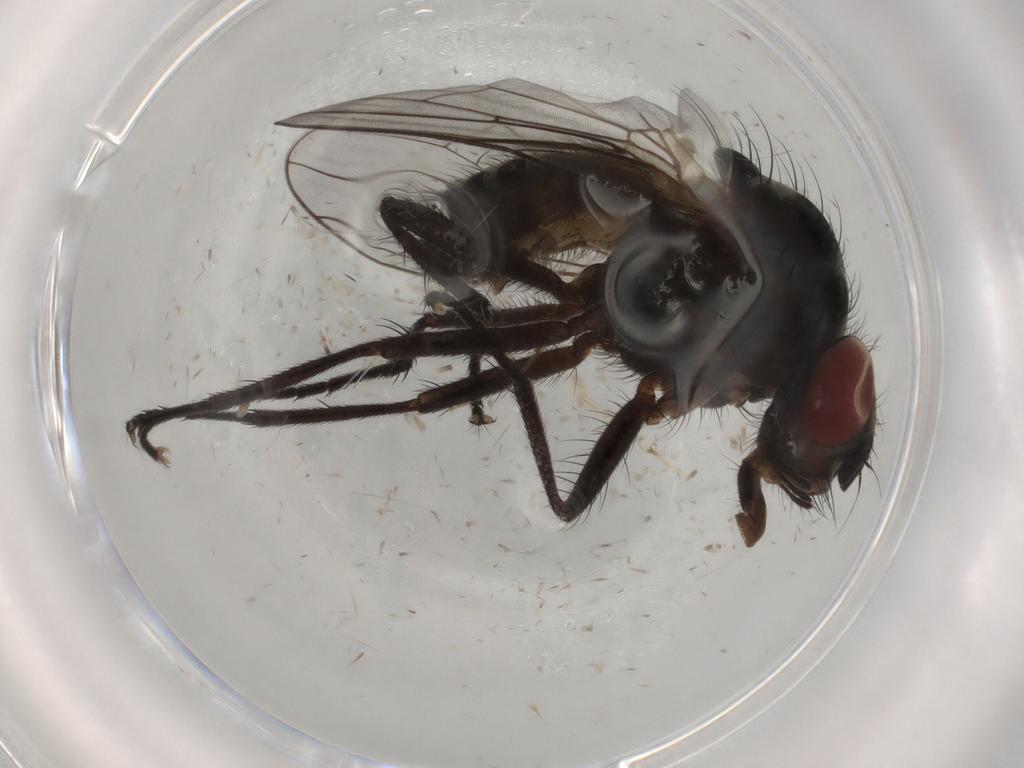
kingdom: Animalia
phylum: Arthropoda
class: Insecta
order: Diptera
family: Anthomyiidae
